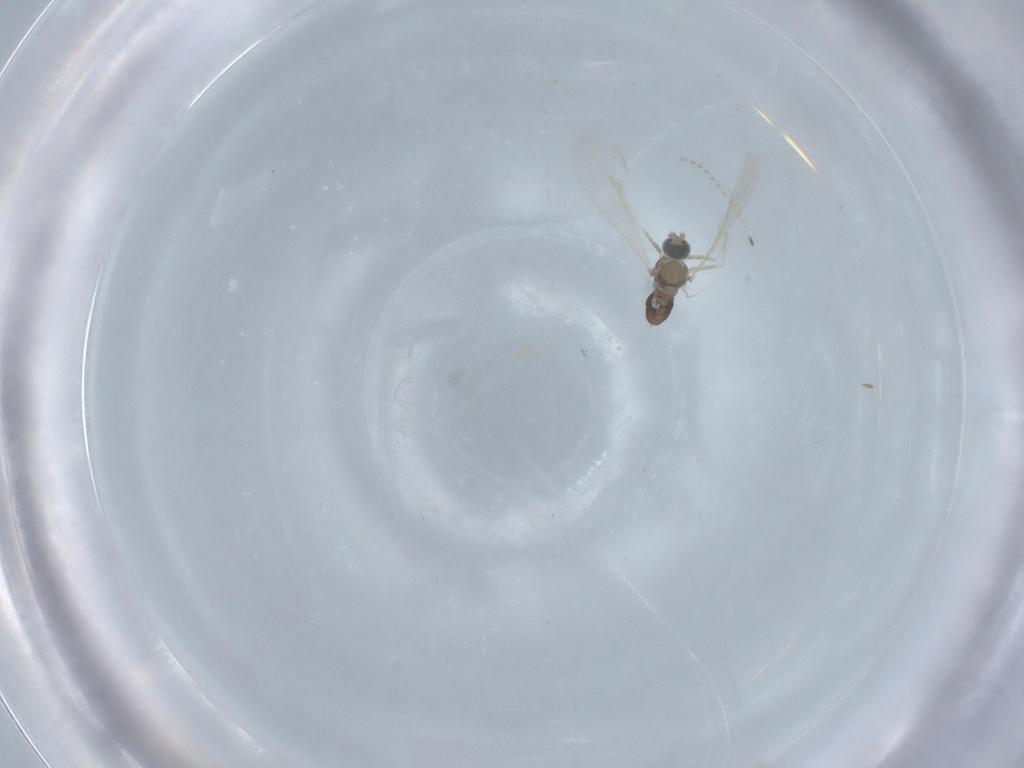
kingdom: Animalia
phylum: Arthropoda
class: Insecta
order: Diptera
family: Cecidomyiidae
